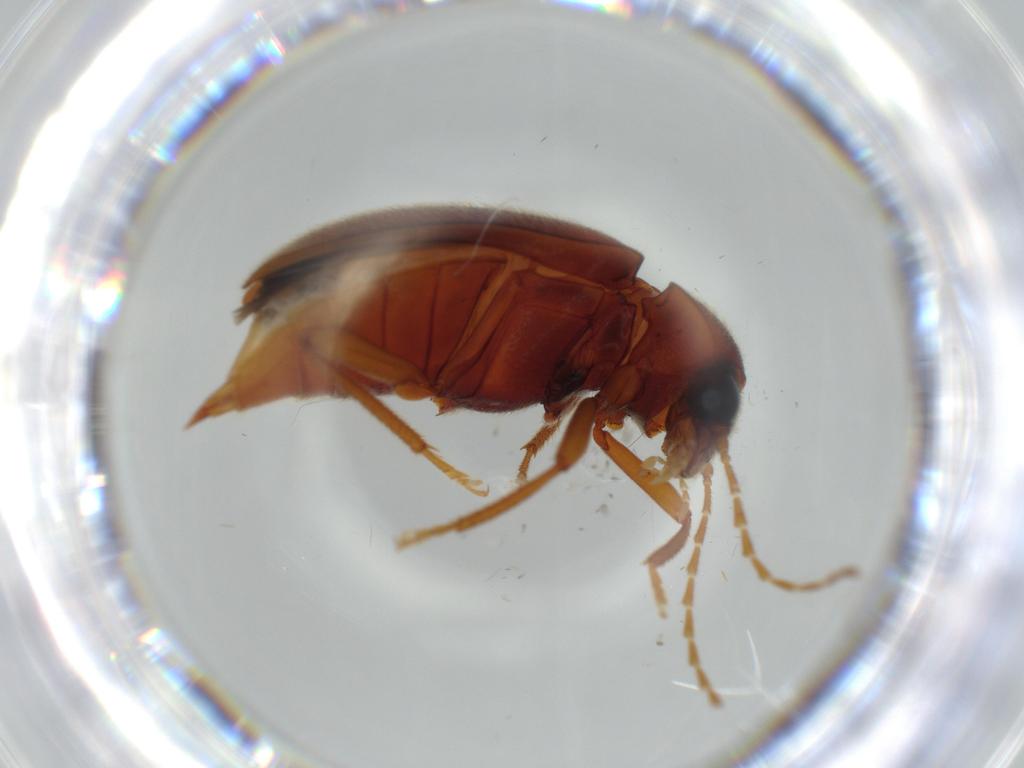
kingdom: Animalia
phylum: Arthropoda
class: Insecta
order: Coleoptera
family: Ptilodactylidae
